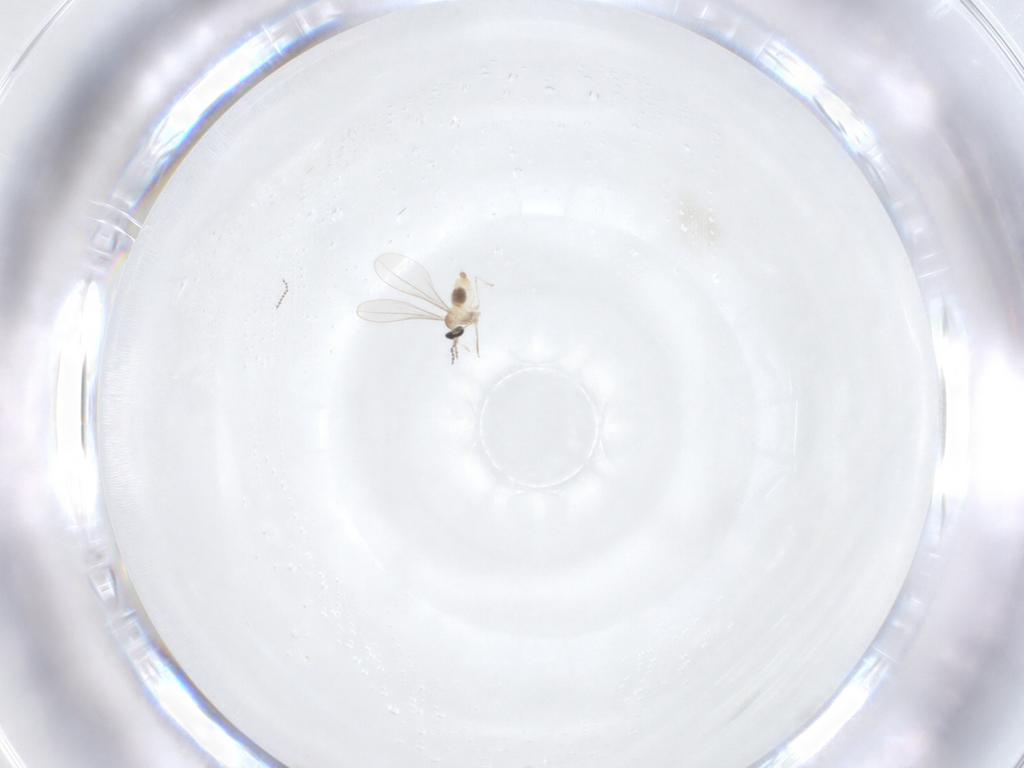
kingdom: Animalia
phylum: Arthropoda
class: Insecta
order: Diptera
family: Cecidomyiidae
